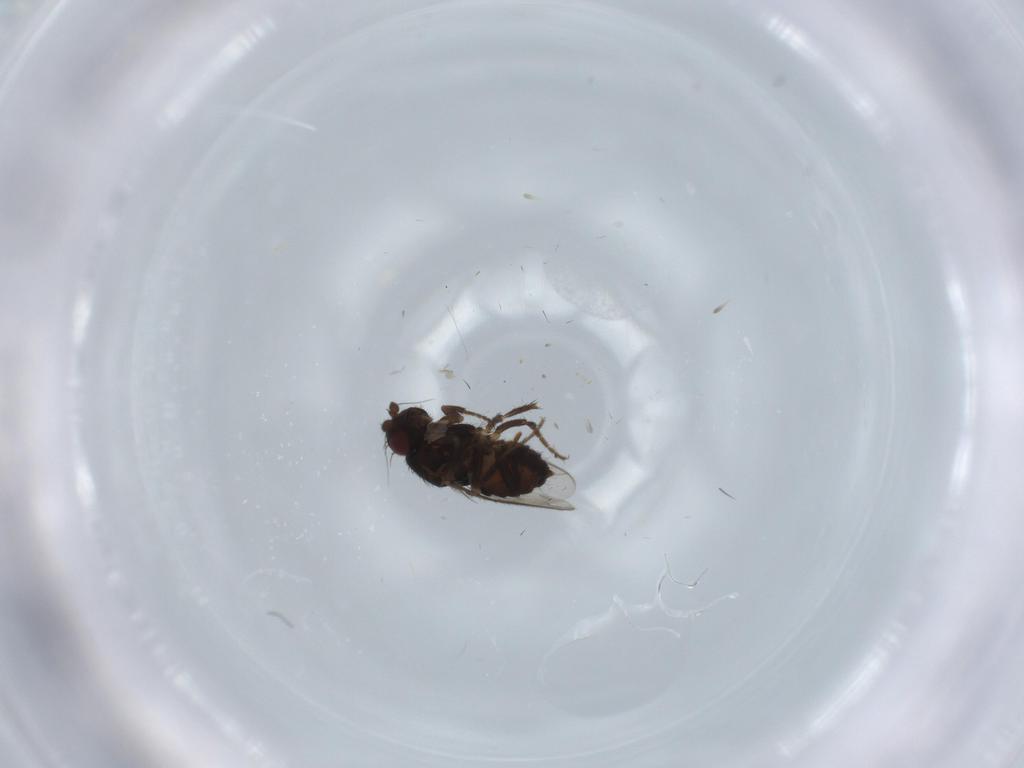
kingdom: Animalia
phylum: Arthropoda
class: Insecta
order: Diptera
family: Sphaeroceridae
